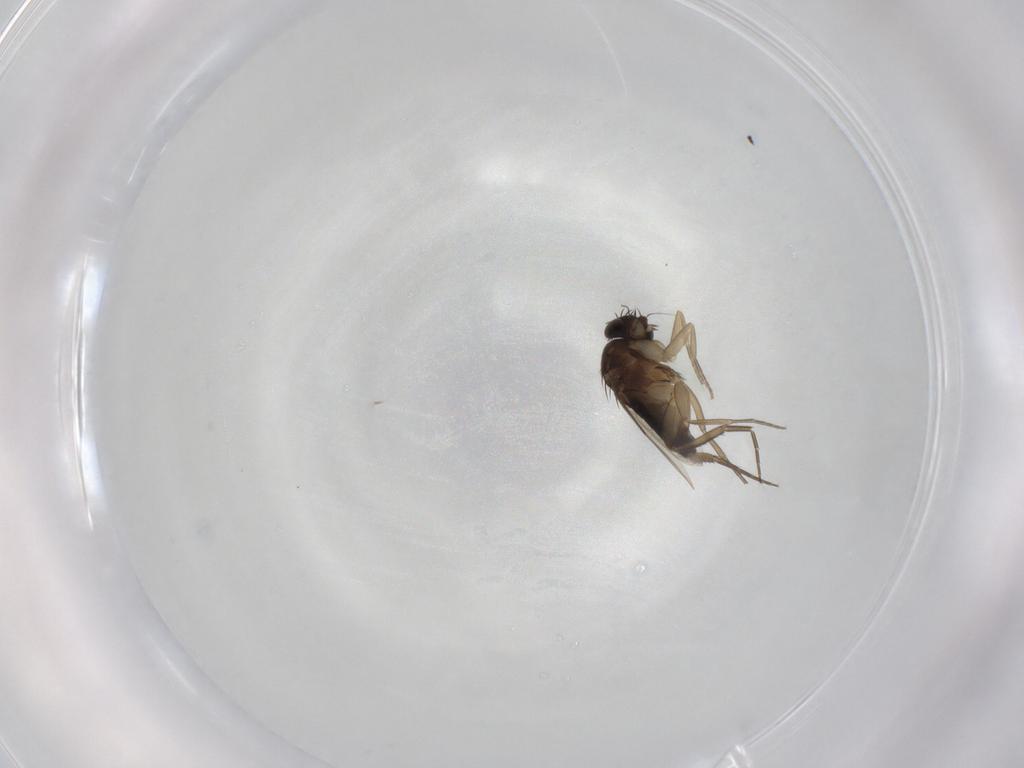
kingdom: Animalia
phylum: Arthropoda
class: Insecta
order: Diptera
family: Phoridae
